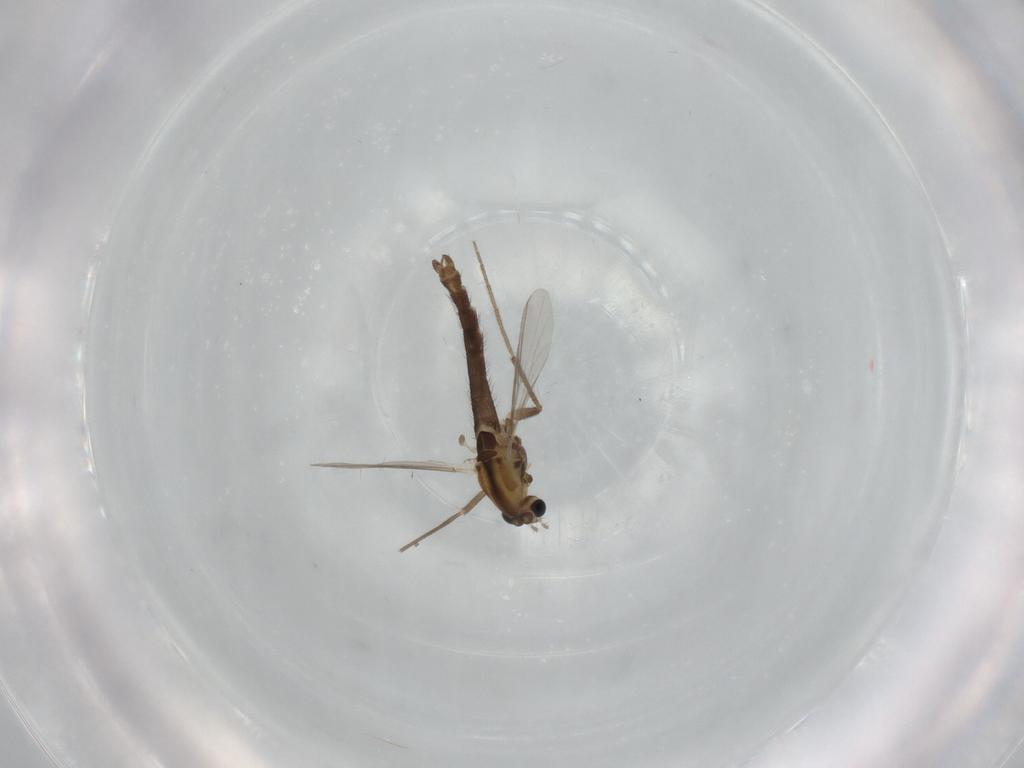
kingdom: Animalia
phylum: Arthropoda
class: Insecta
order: Diptera
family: Chironomidae
